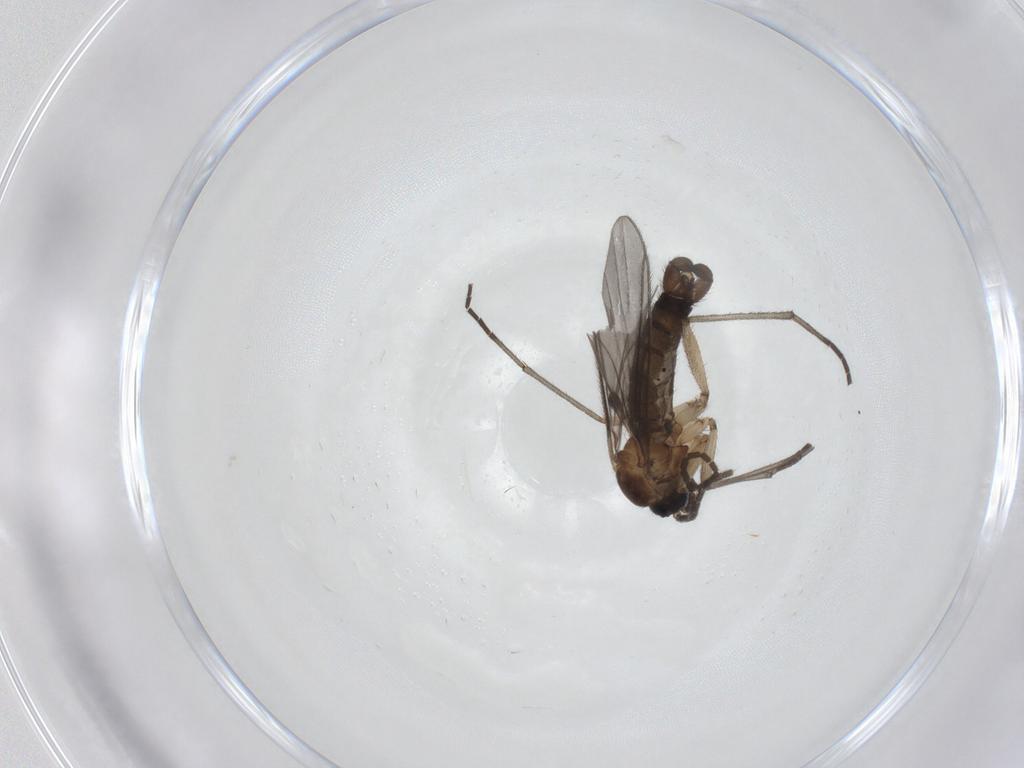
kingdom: Animalia
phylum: Arthropoda
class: Insecta
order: Diptera
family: Sciaridae
